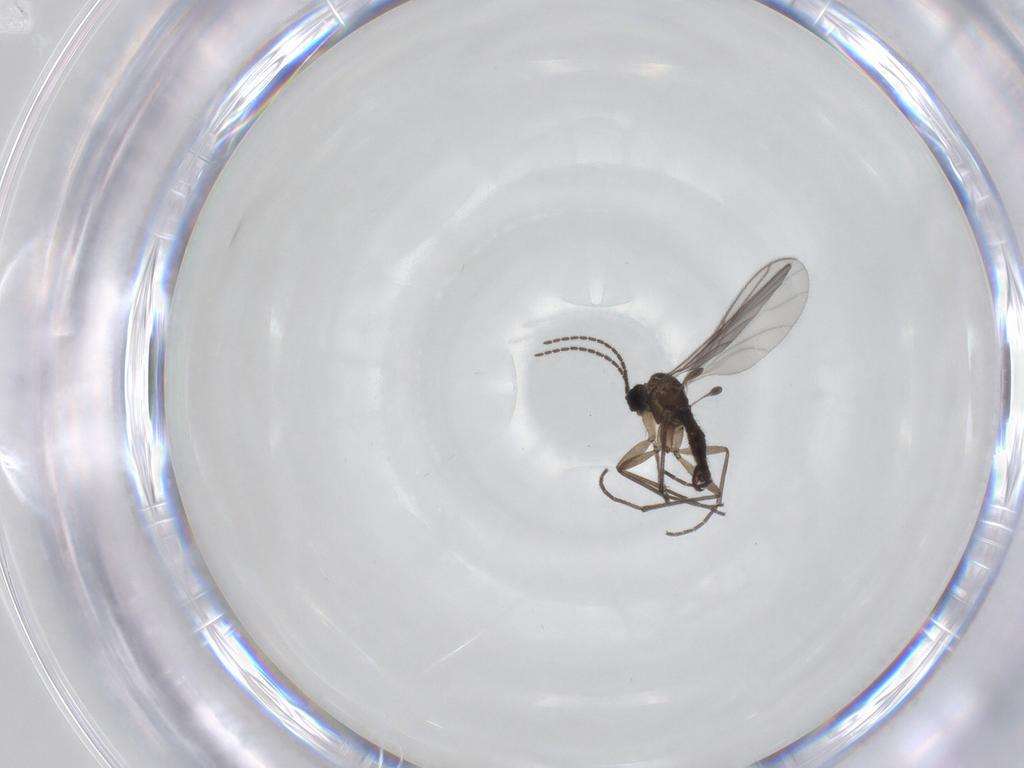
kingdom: Animalia
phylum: Arthropoda
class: Insecta
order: Diptera
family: Sciaridae
